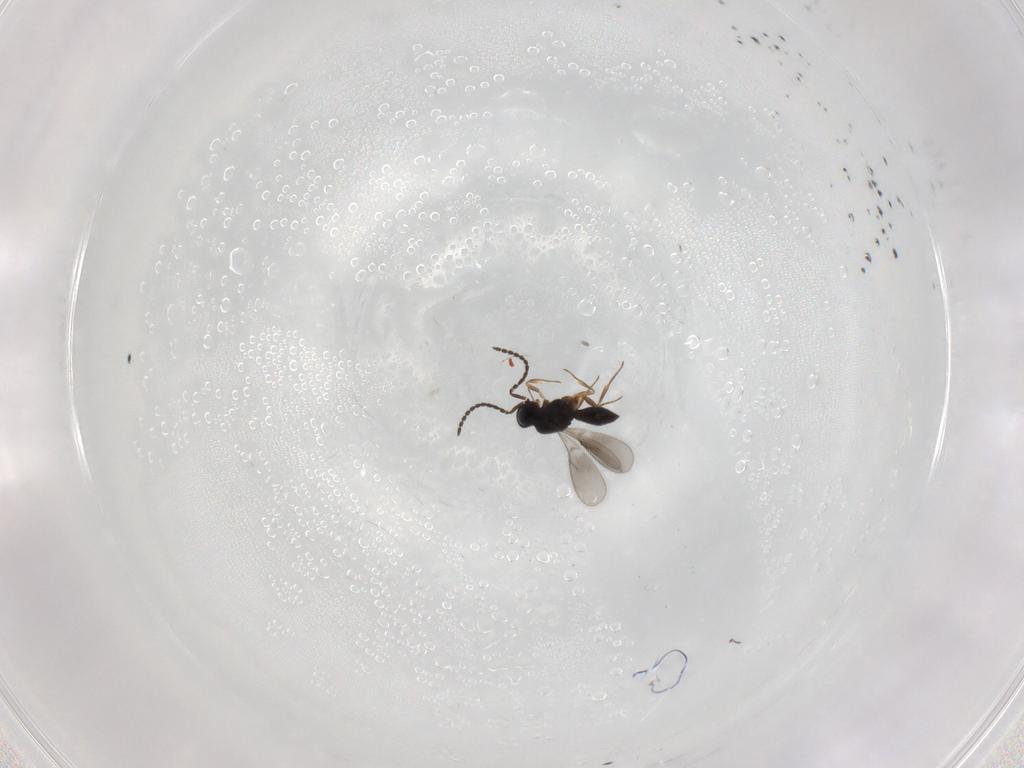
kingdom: Animalia
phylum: Arthropoda
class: Insecta
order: Hymenoptera
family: Scelionidae
